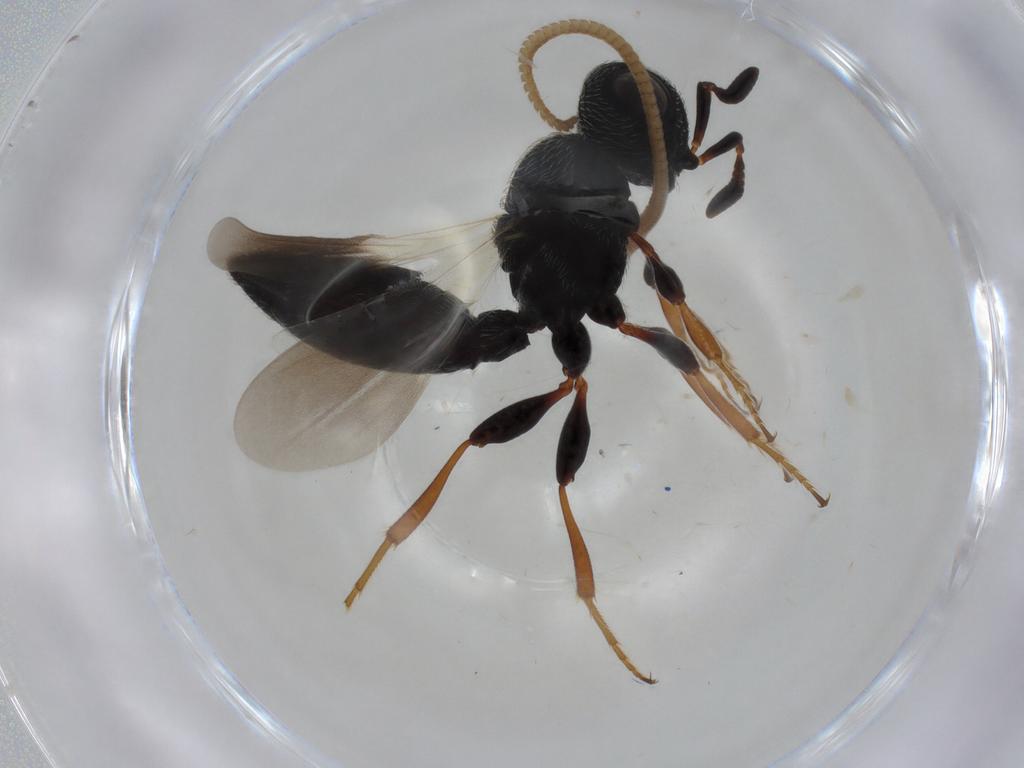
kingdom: Animalia
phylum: Arthropoda
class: Insecta
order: Hymenoptera
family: Scelionidae
